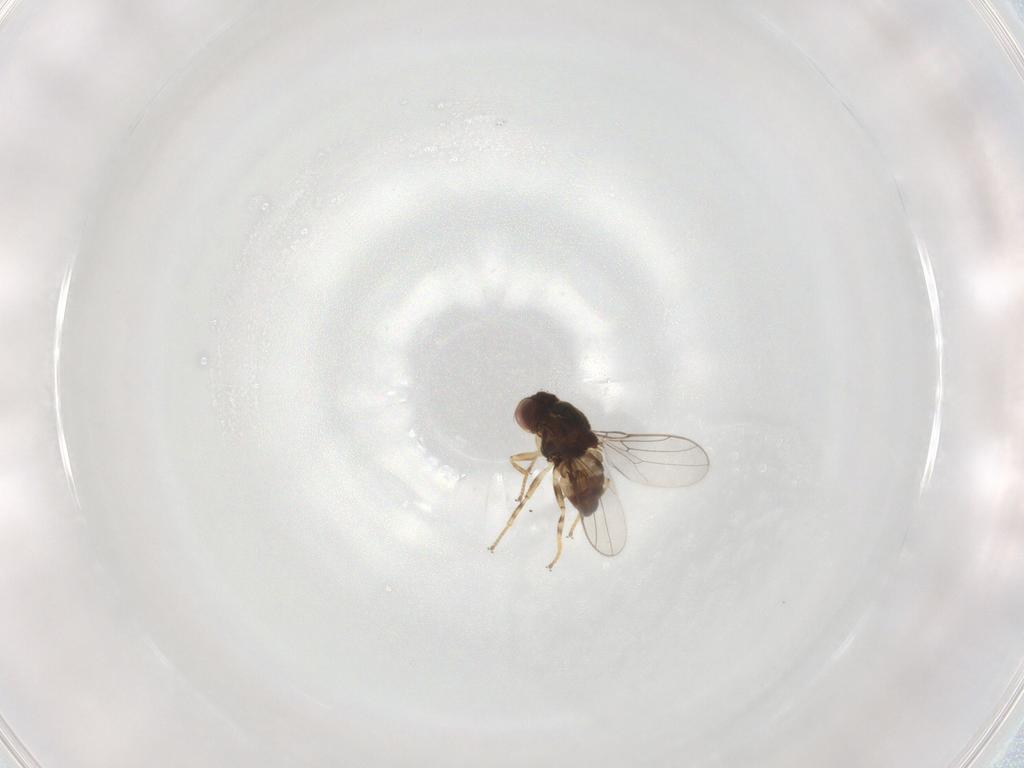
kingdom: Animalia
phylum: Arthropoda
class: Insecta
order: Diptera
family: Chloropidae
